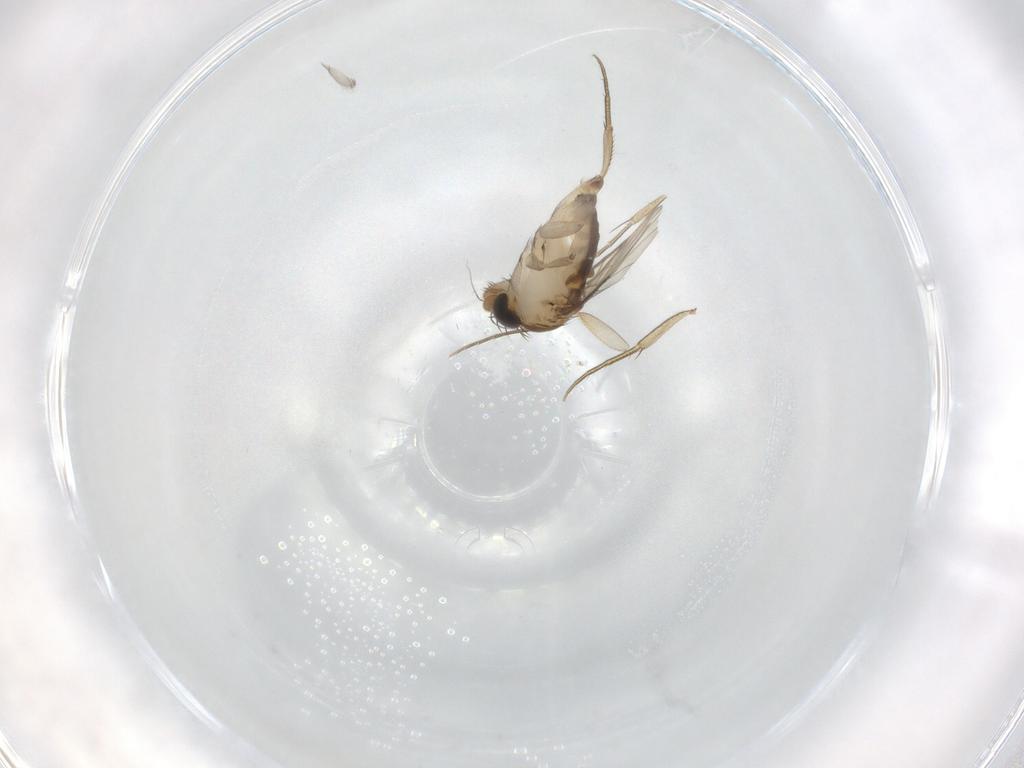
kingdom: Animalia
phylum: Arthropoda
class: Insecta
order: Diptera
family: Phoridae
